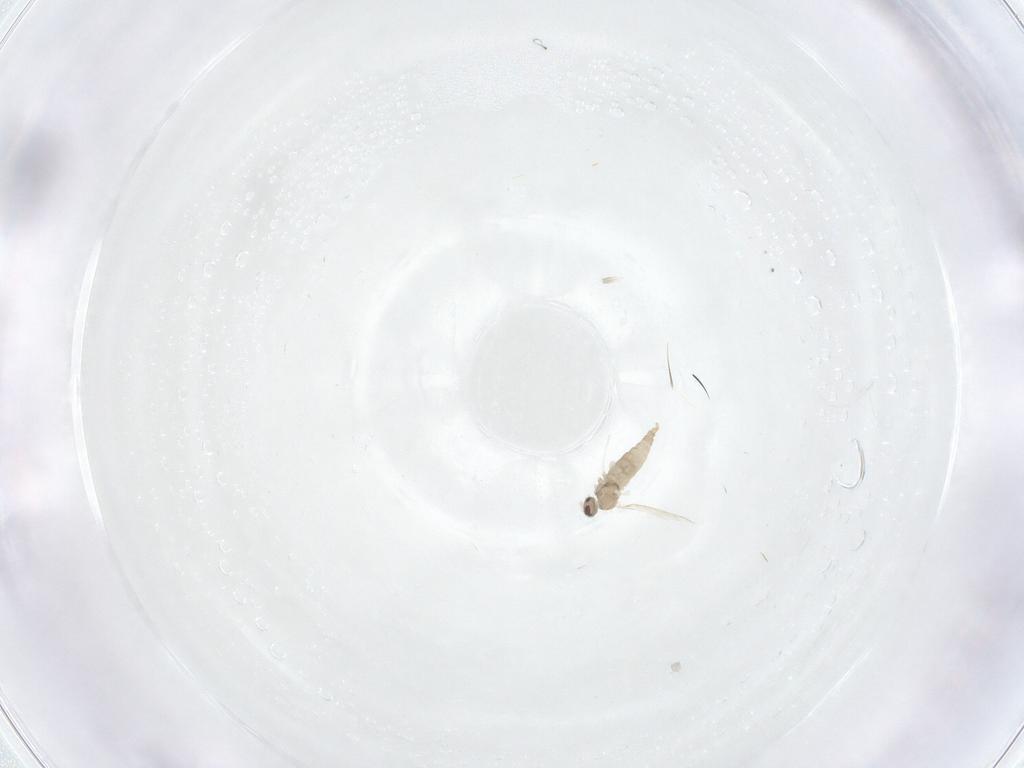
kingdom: Animalia
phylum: Arthropoda
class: Insecta
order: Diptera
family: Cecidomyiidae
